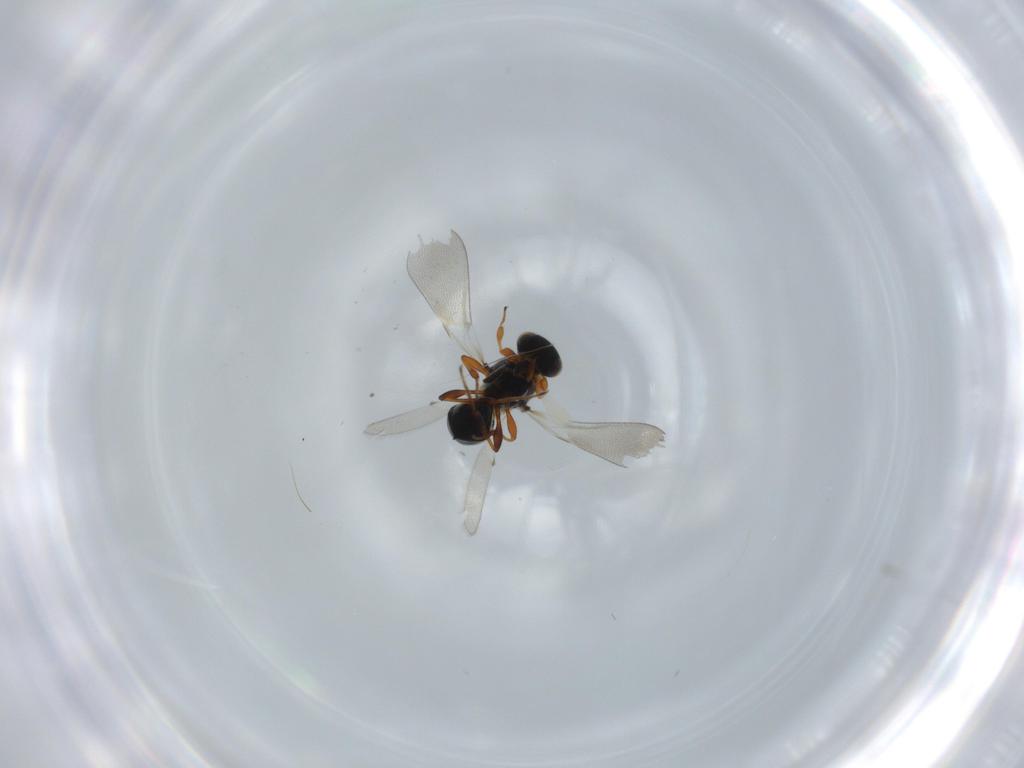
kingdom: Animalia
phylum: Arthropoda
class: Insecta
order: Hymenoptera
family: Platygastridae
